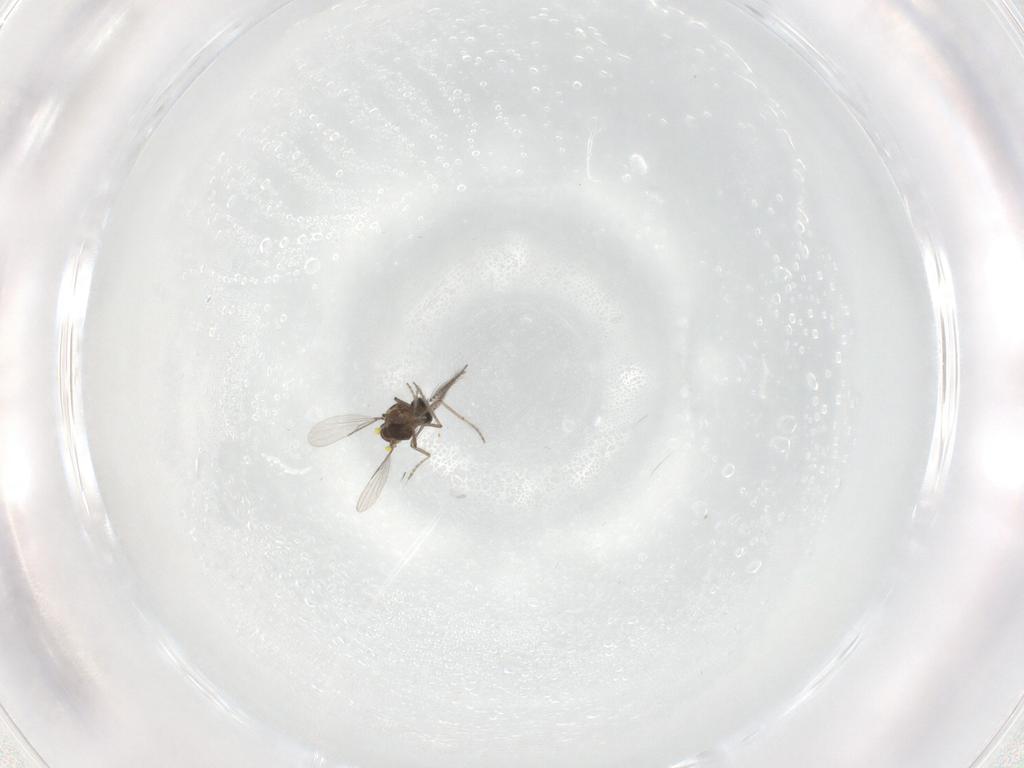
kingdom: Animalia
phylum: Arthropoda
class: Insecta
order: Diptera
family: Ceratopogonidae
